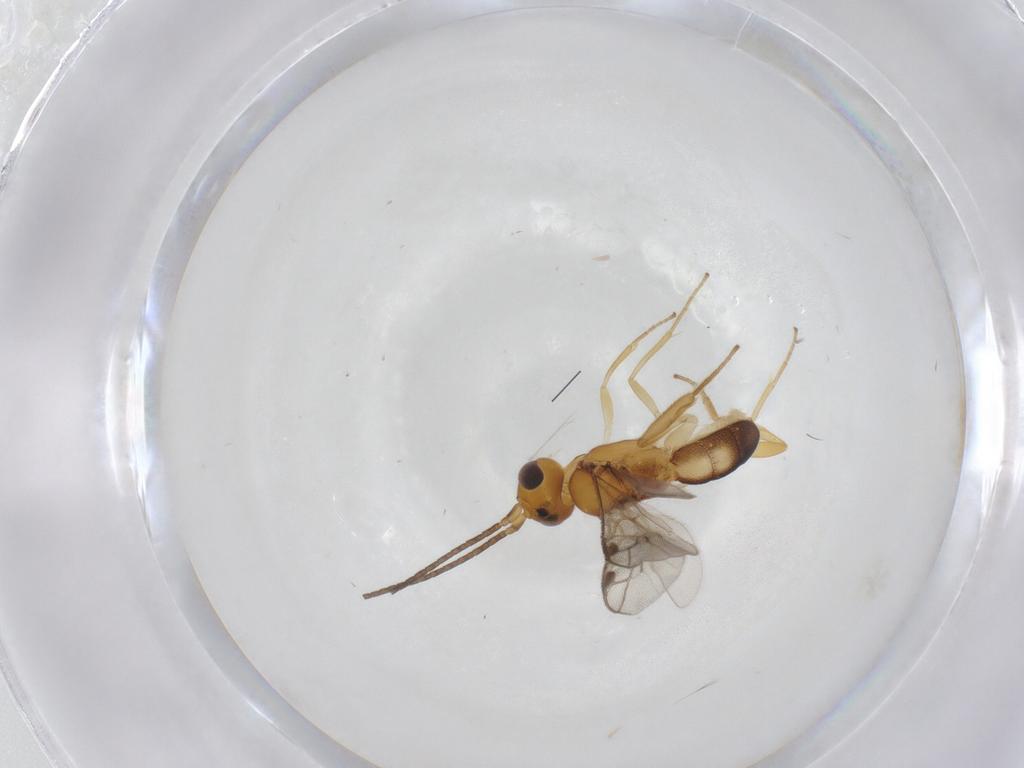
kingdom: Animalia
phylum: Arthropoda
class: Insecta
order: Hymenoptera
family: Braconidae
